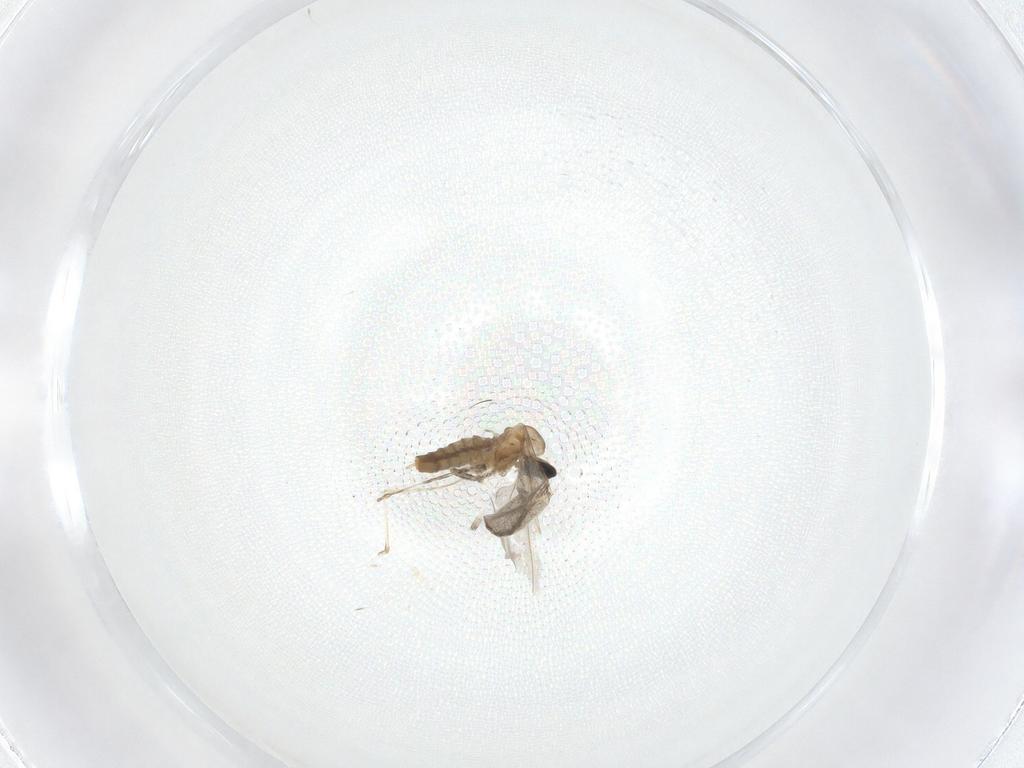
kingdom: Animalia
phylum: Arthropoda
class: Insecta
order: Diptera
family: Cecidomyiidae
